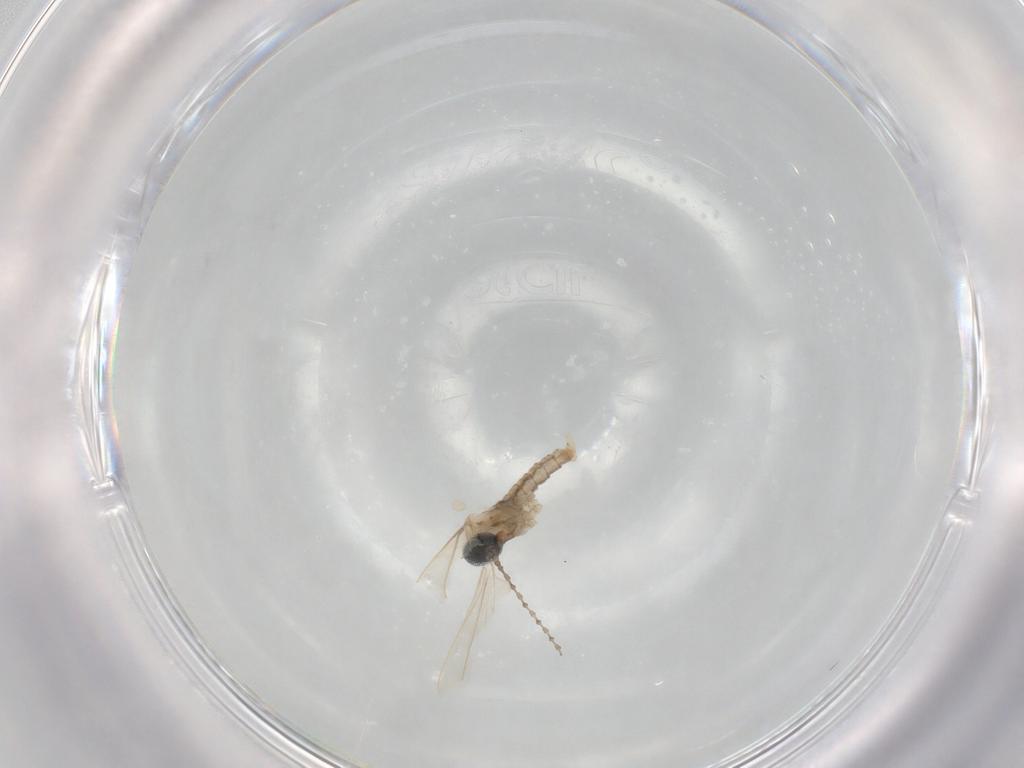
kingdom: Animalia
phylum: Arthropoda
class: Insecta
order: Diptera
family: Cecidomyiidae
